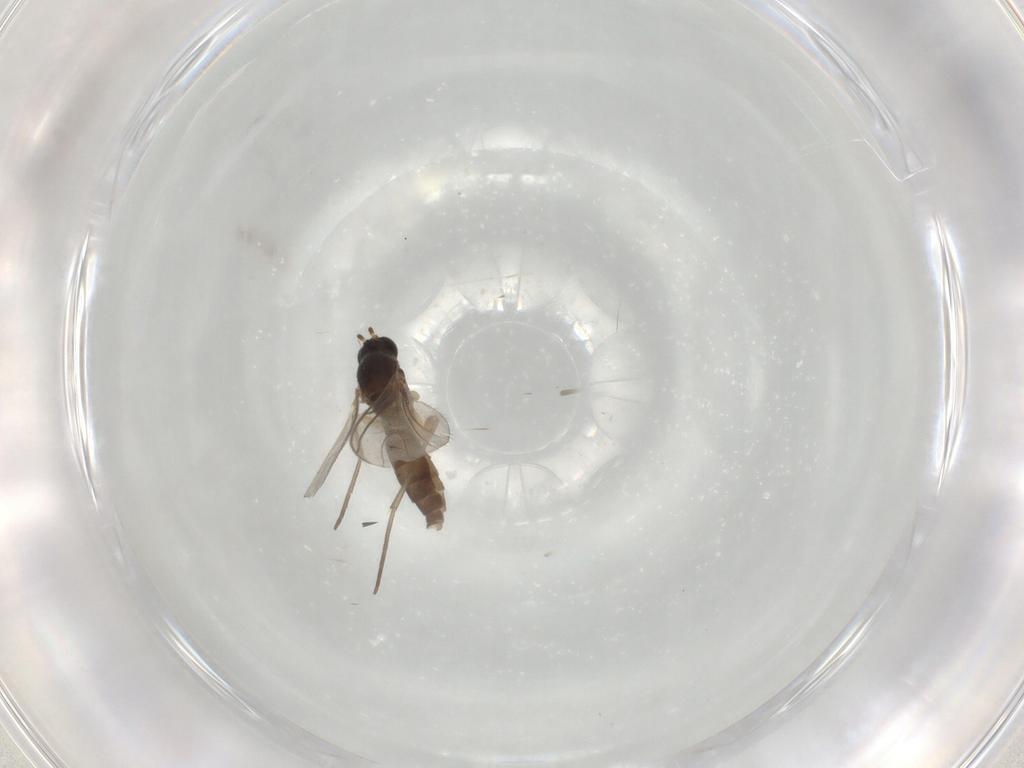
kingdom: Animalia
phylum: Arthropoda
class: Insecta
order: Diptera
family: Sciaridae
